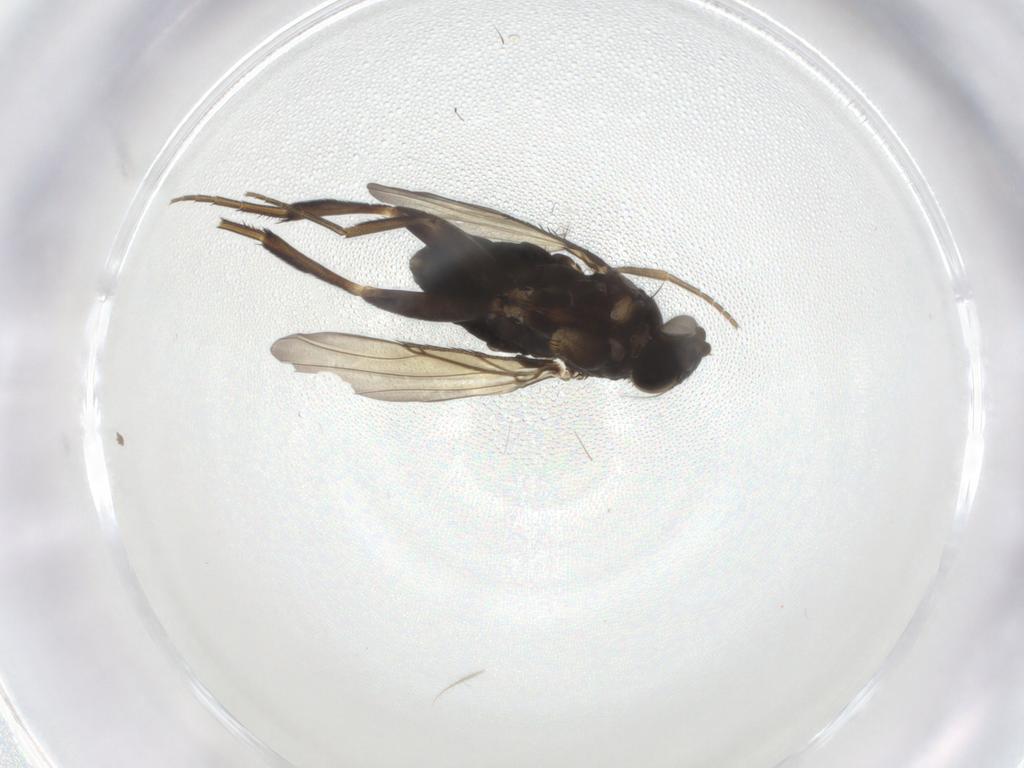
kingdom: Animalia
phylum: Arthropoda
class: Insecta
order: Diptera
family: Phoridae
